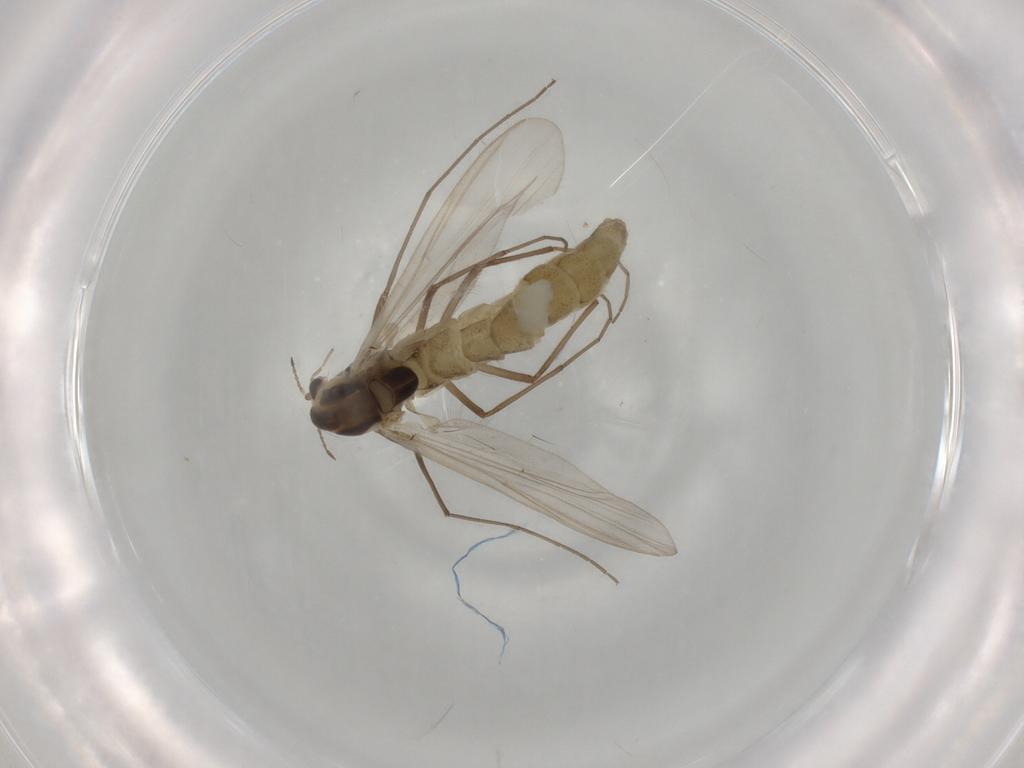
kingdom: Animalia
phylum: Arthropoda
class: Insecta
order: Diptera
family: Chironomidae
